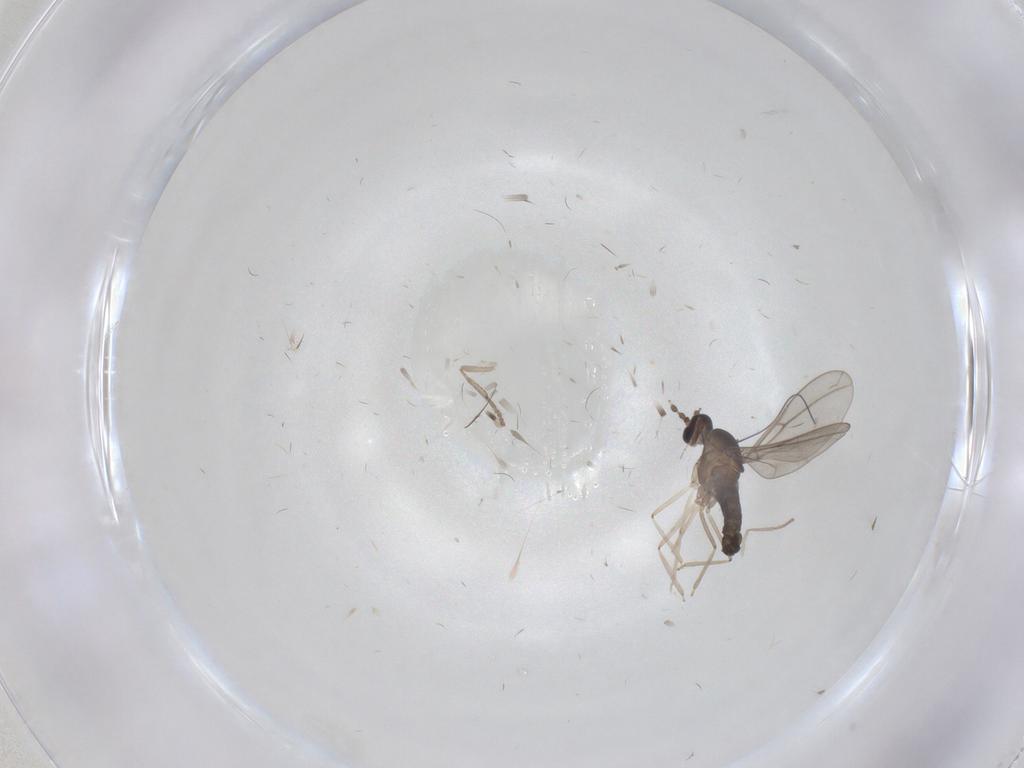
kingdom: Animalia
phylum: Arthropoda
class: Insecta
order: Diptera
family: Cecidomyiidae
